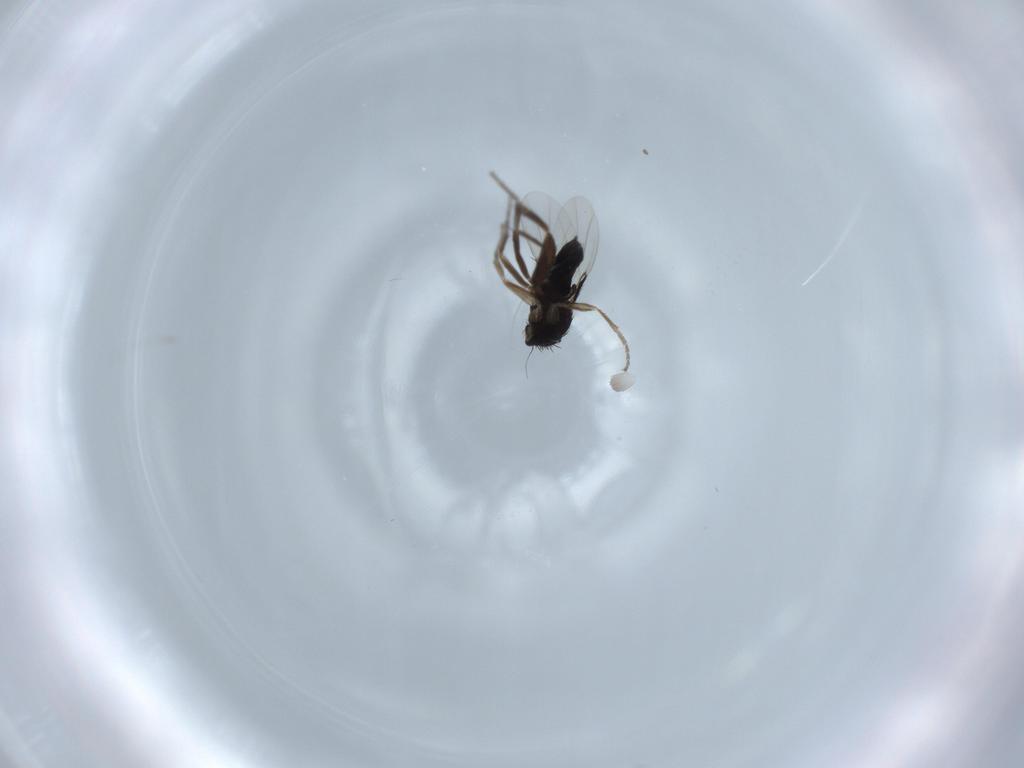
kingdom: Animalia
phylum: Arthropoda
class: Insecta
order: Diptera
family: Phoridae
